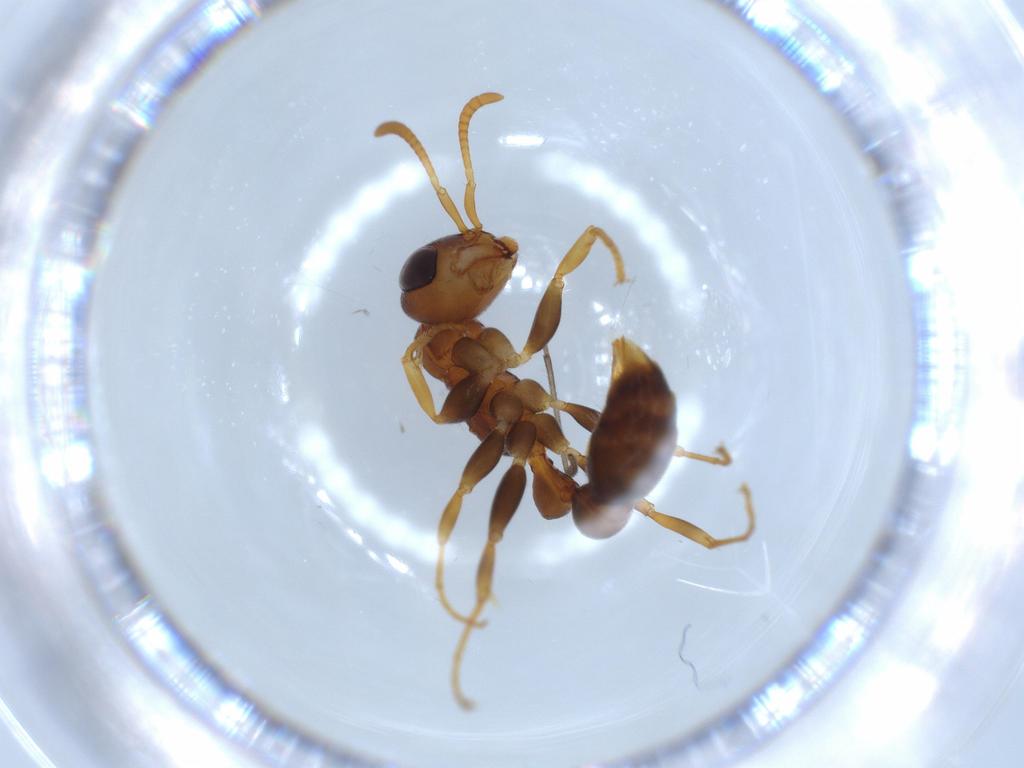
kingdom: Animalia
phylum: Arthropoda
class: Insecta
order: Hymenoptera
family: Formicidae
